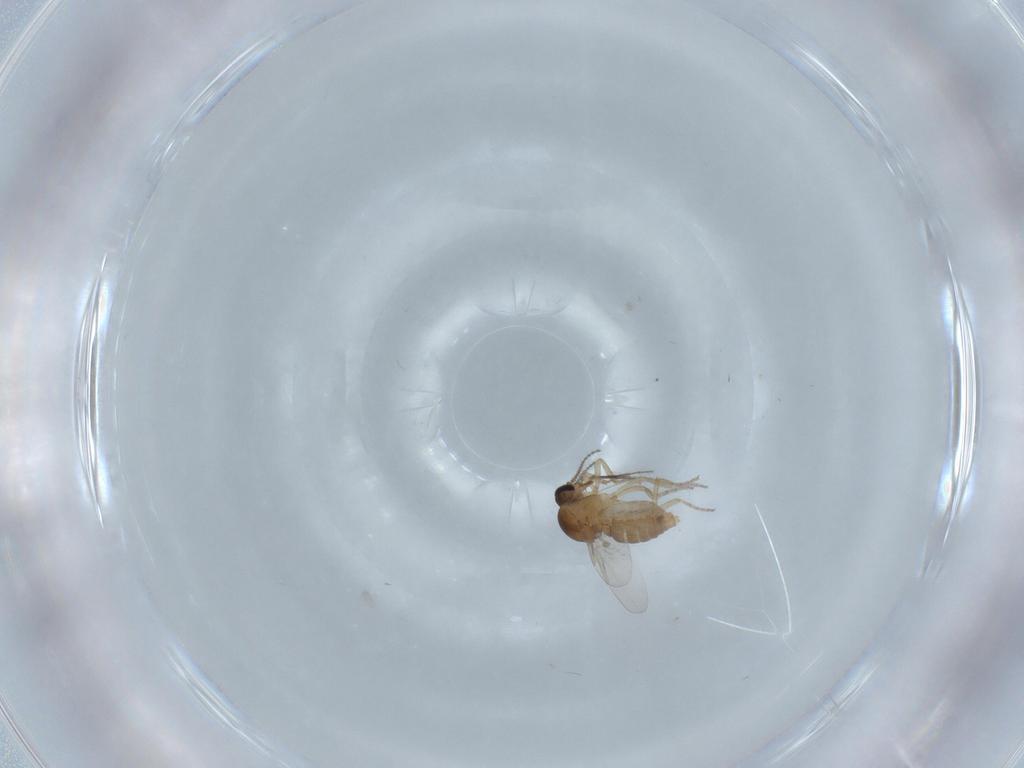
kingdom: Animalia
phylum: Arthropoda
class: Insecta
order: Diptera
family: Ceratopogonidae
